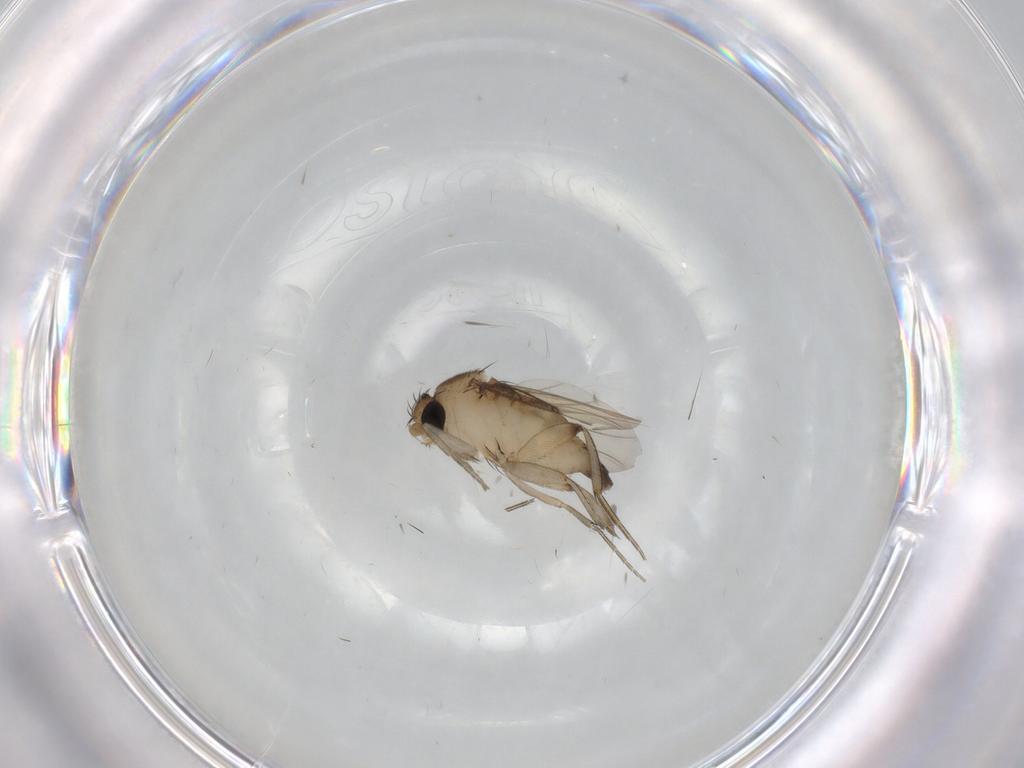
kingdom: Animalia
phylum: Arthropoda
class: Insecta
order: Diptera
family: Phoridae
